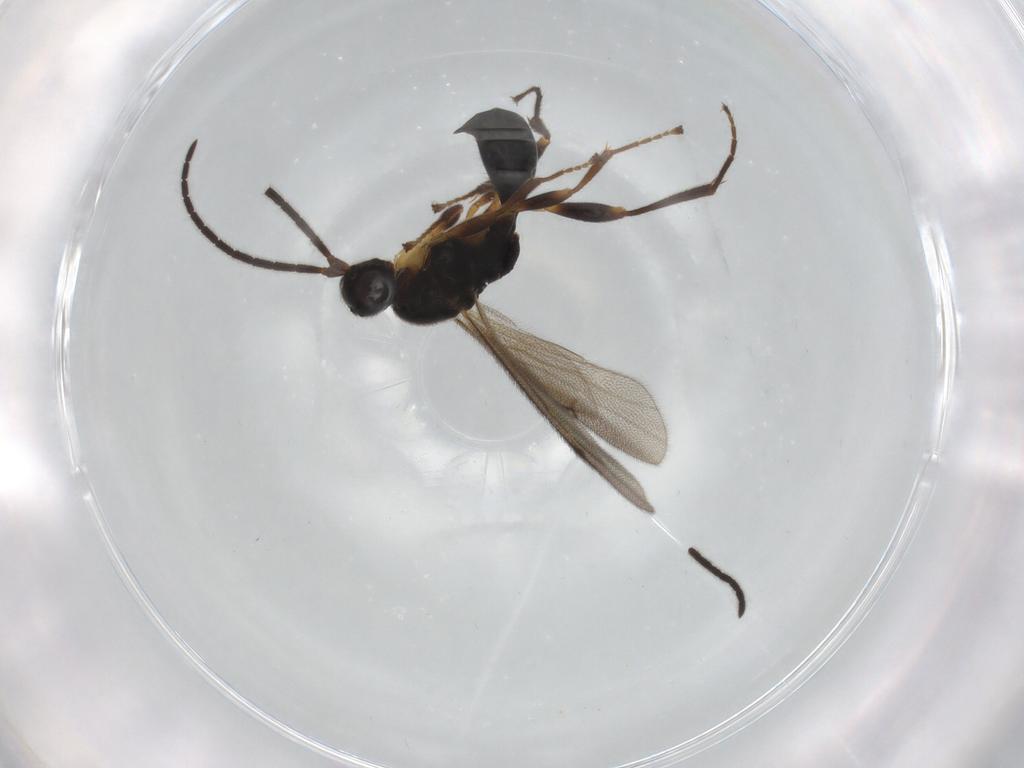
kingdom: Animalia
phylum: Arthropoda
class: Insecta
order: Hymenoptera
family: Proctotrupidae
